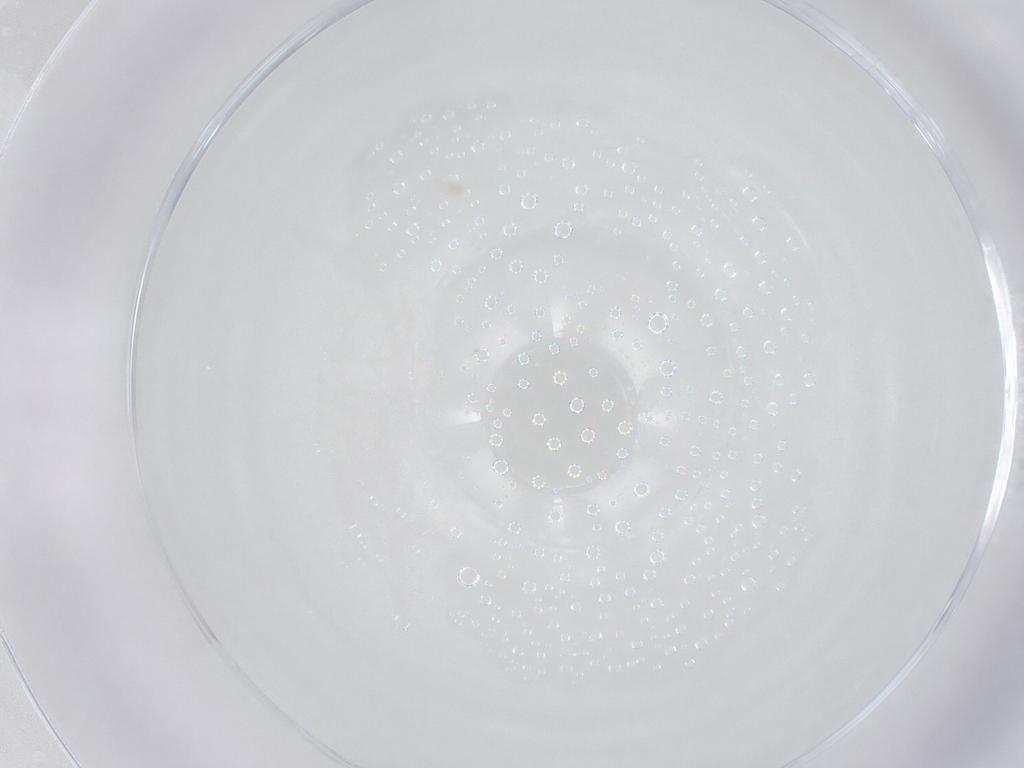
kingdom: Animalia
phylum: Arthropoda
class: Arachnida
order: Sarcoptiformes
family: Nanorchestidae
